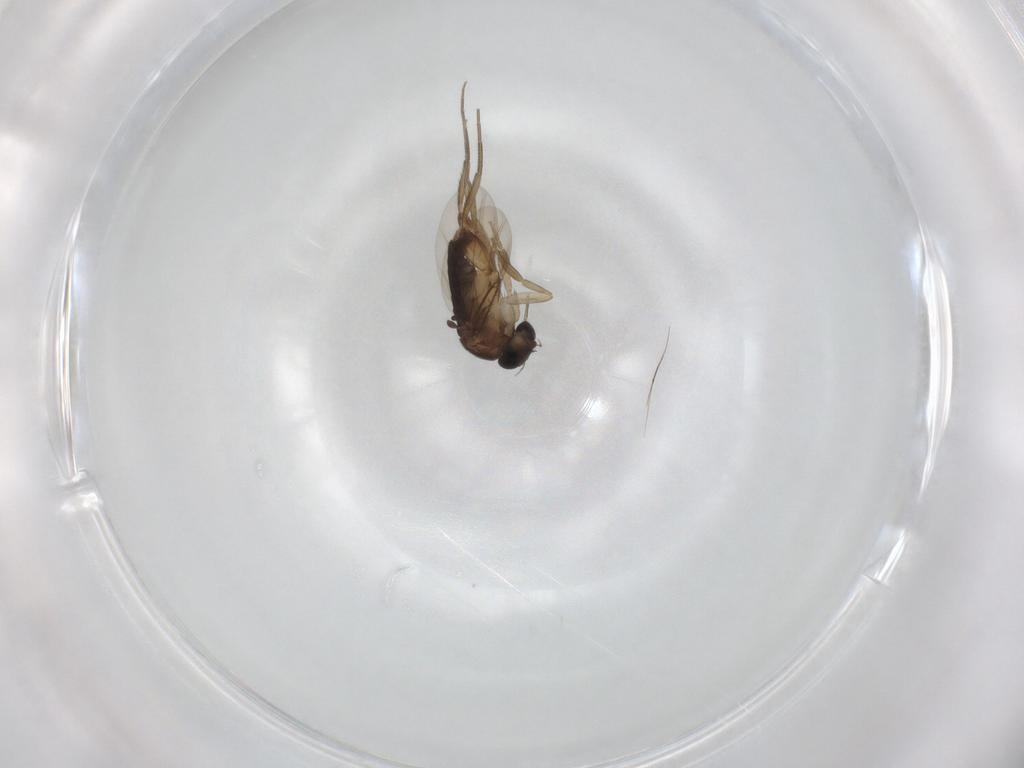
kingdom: Animalia
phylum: Arthropoda
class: Insecta
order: Diptera
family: Phoridae
